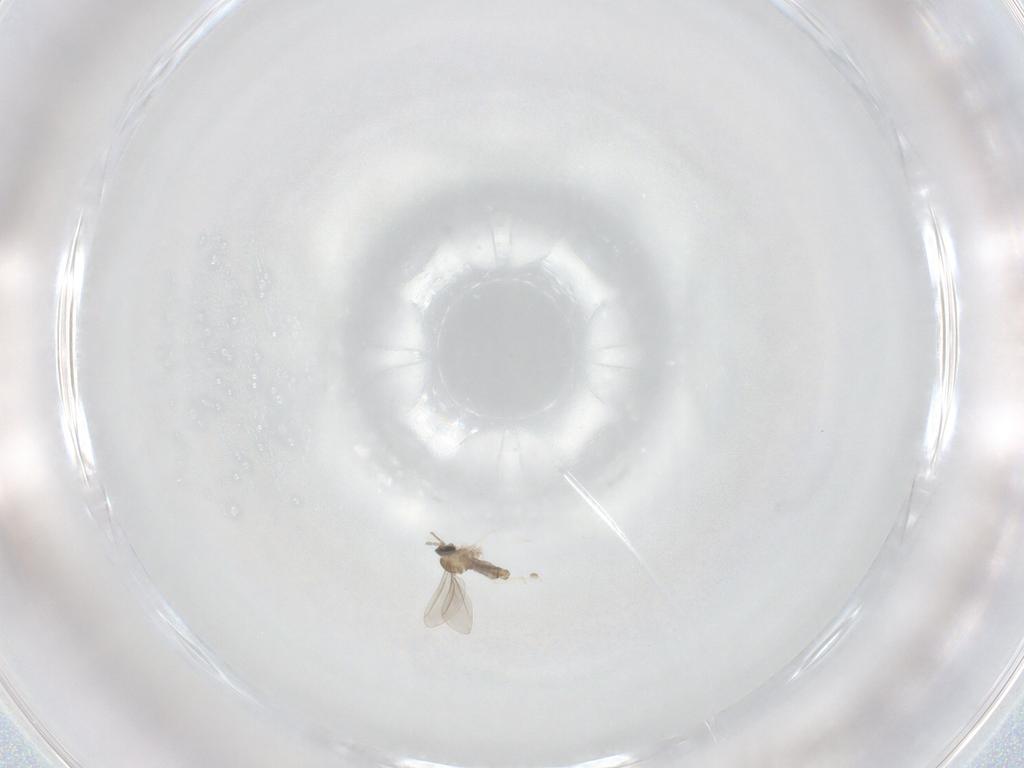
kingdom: Animalia
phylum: Arthropoda
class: Insecta
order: Diptera
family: Cecidomyiidae
